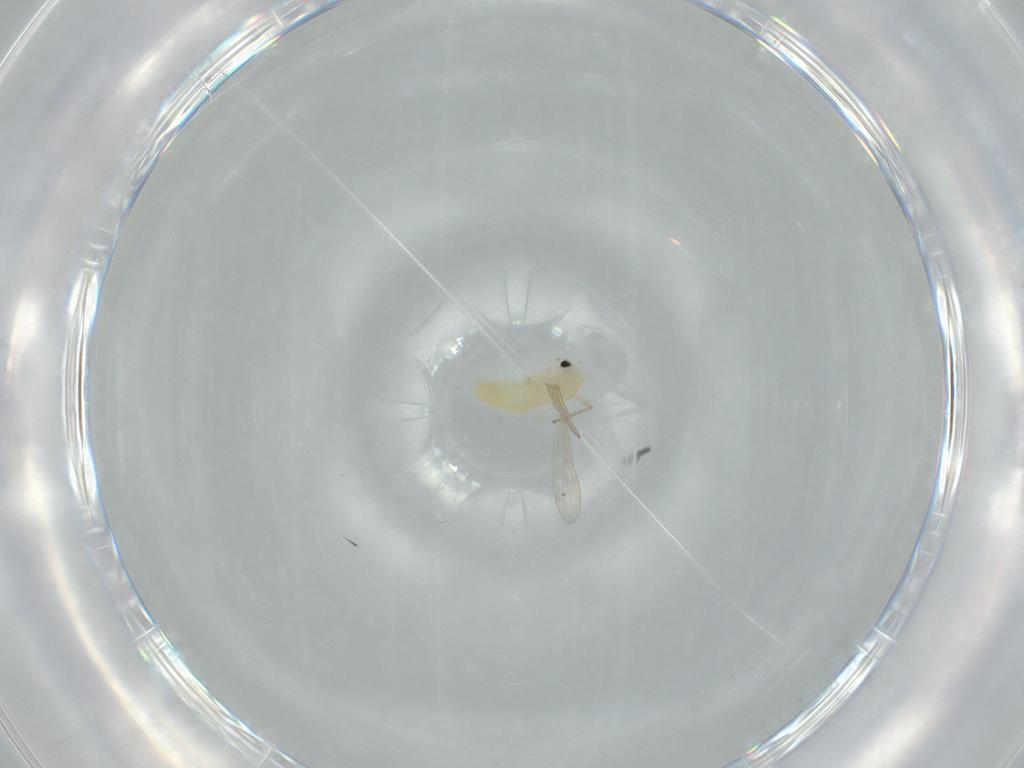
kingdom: Animalia
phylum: Arthropoda
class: Insecta
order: Diptera
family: Chironomidae
